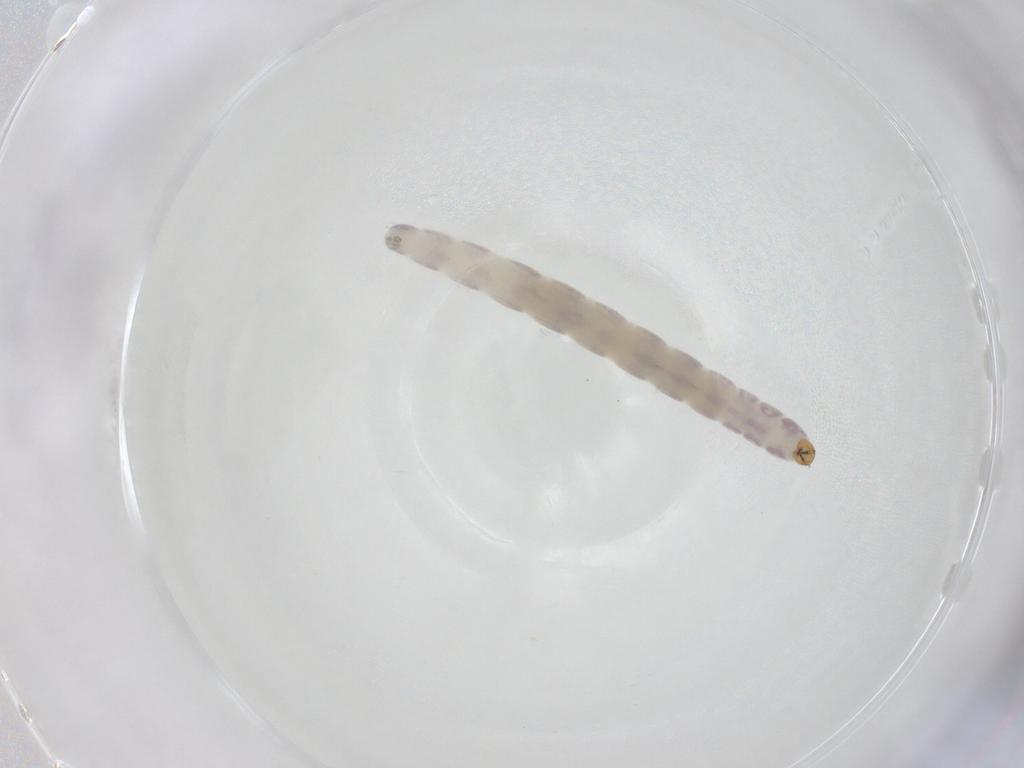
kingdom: Animalia
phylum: Arthropoda
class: Insecta
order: Diptera
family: Chironomidae
